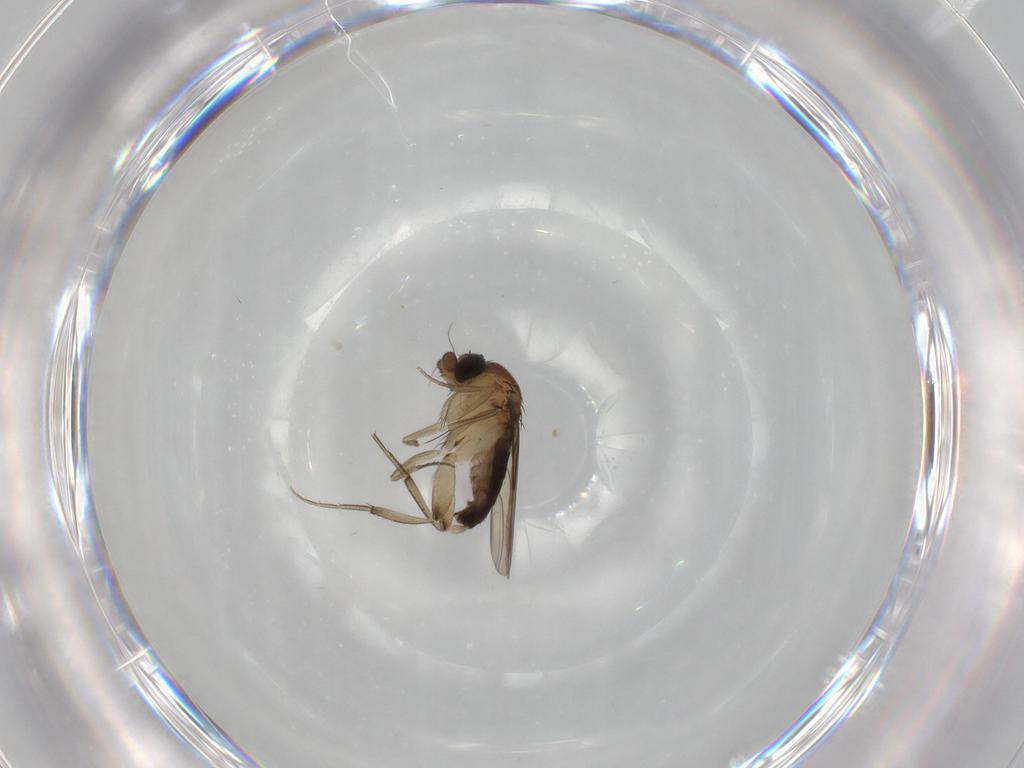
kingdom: Animalia
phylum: Arthropoda
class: Insecta
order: Diptera
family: Phoridae
